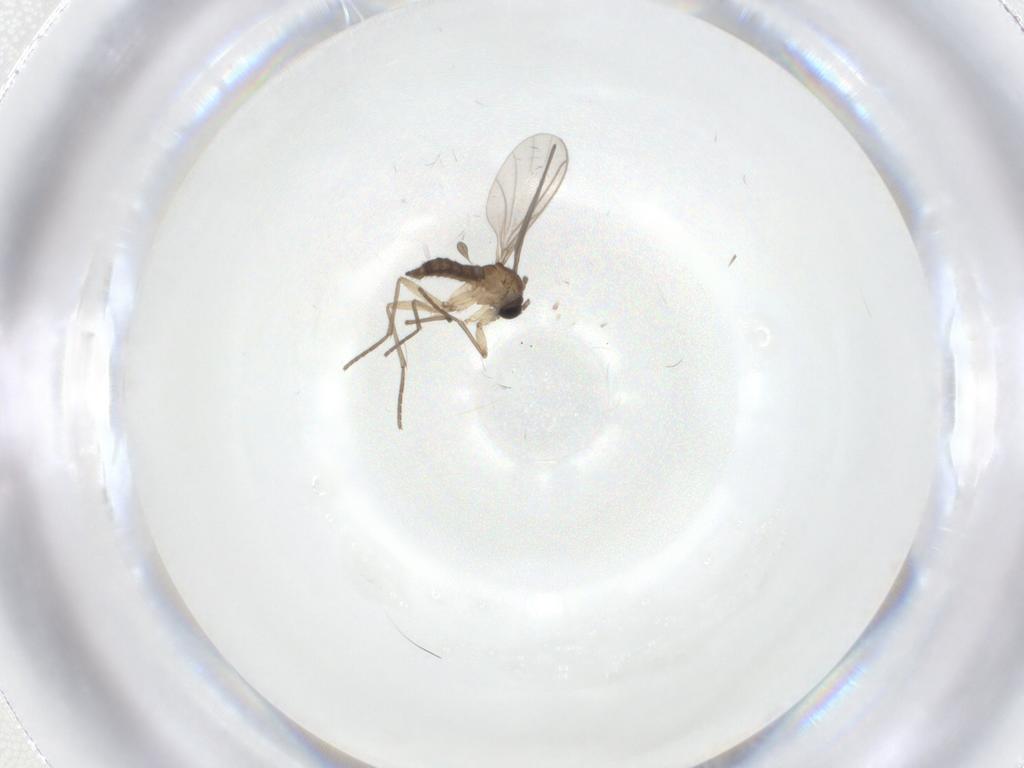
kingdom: Animalia
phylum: Arthropoda
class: Insecta
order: Diptera
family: Sciaridae
